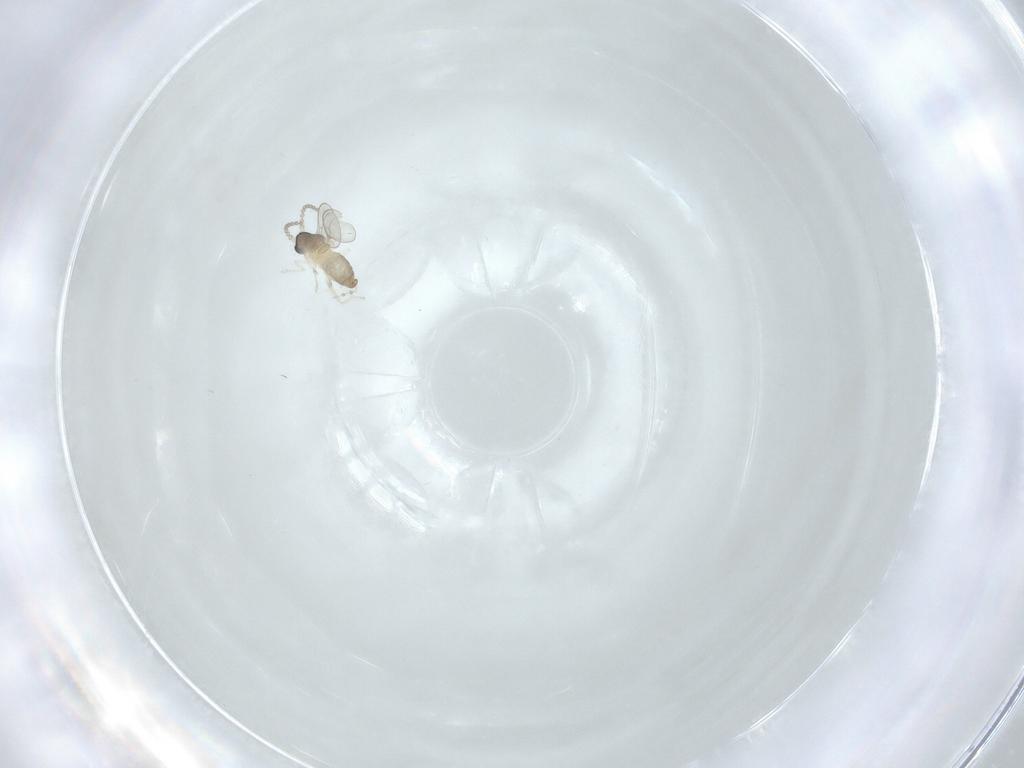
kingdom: Animalia
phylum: Arthropoda
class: Insecta
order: Diptera
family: Cecidomyiidae
